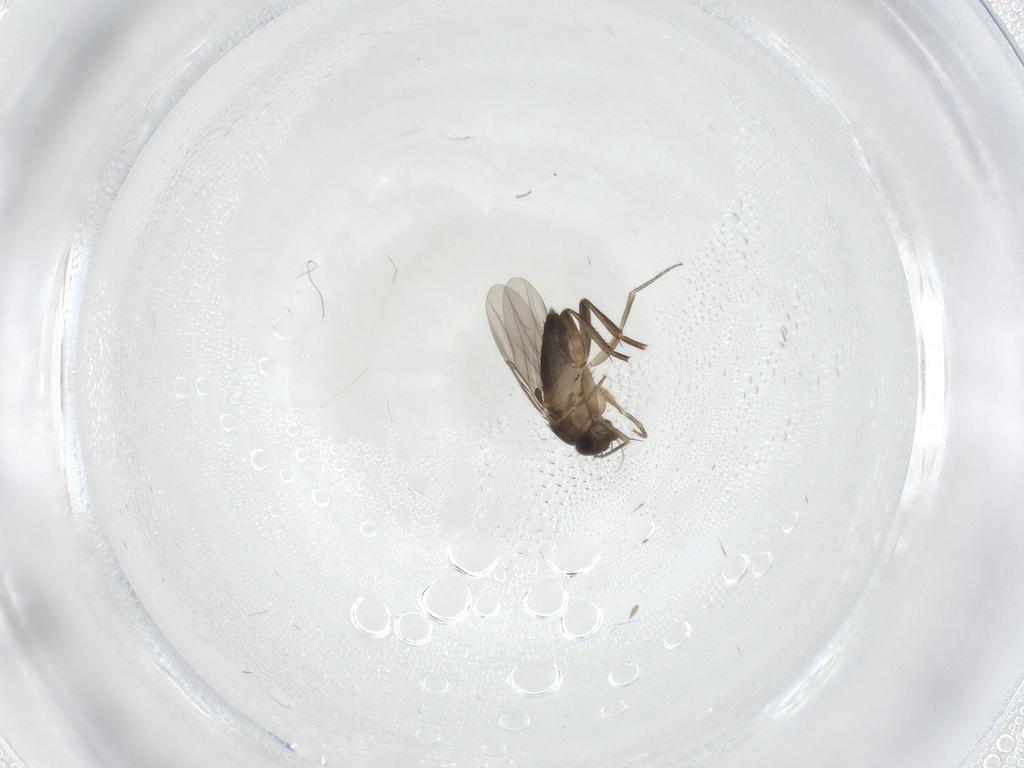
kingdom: Animalia
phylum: Arthropoda
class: Insecta
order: Diptera
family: Phoridae
